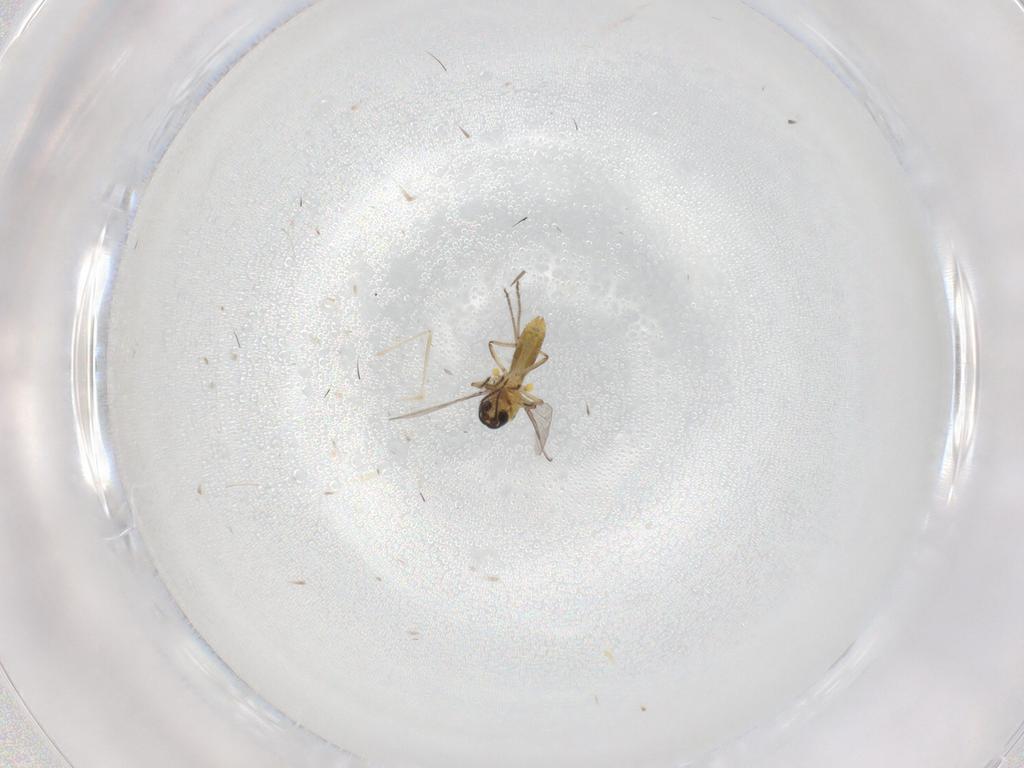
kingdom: Animalia
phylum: Arthropoda
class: Insecta
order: Diptera
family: Cecidomyiidae
